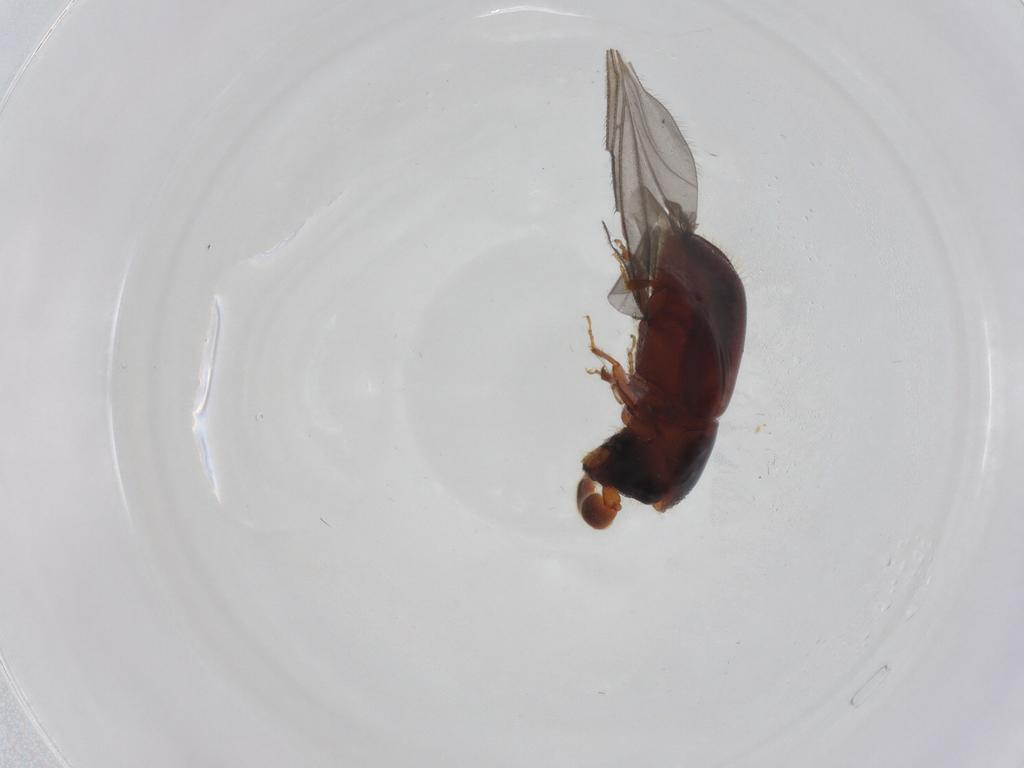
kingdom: Animalia
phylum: Arthropoda
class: Insecta
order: Coleoptera
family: Curculionidae
